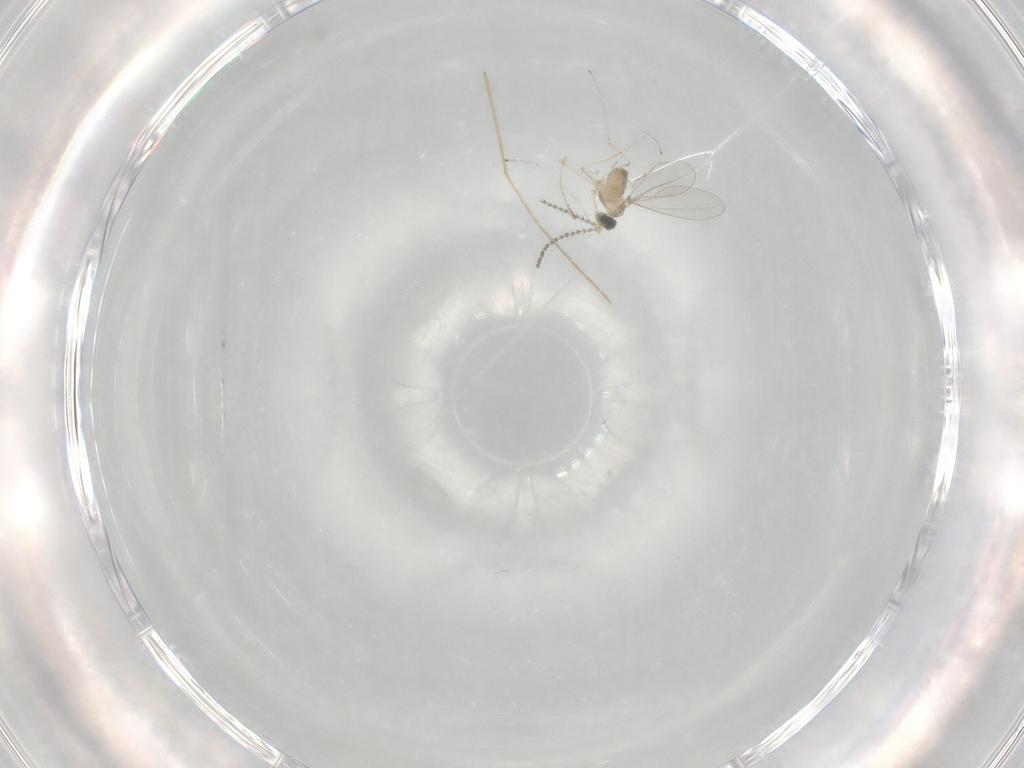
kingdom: Animalia
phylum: Arthropoda
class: Insecta
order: Diptera
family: Cecidomyiidae
